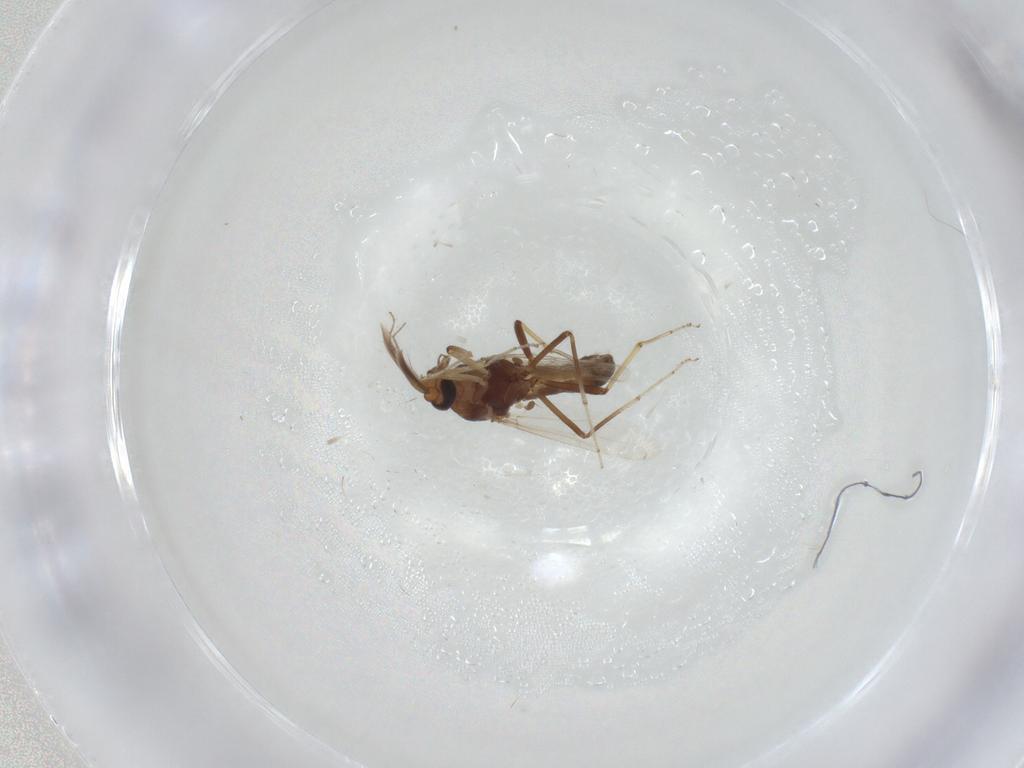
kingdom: Animalia
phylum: Arthropoda
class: Insecta
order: Diptera
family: Ceratopogonidae
